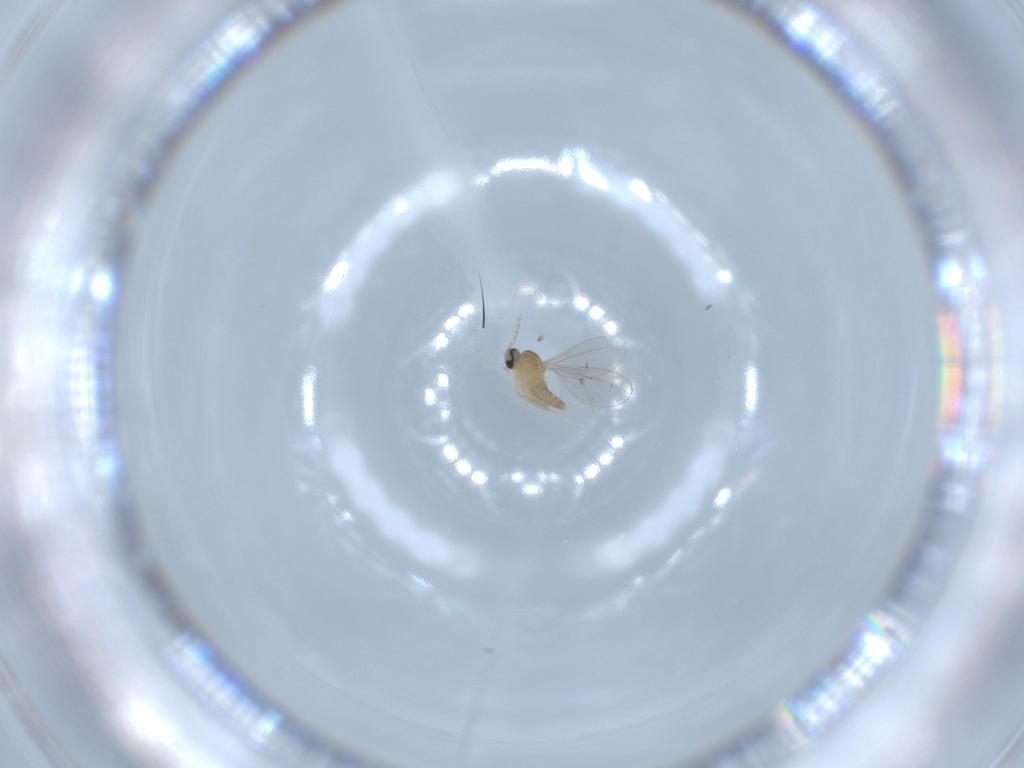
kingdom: Animalia
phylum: Arthropoda
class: Insecta
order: Diptera
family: Cecidomyiidae
